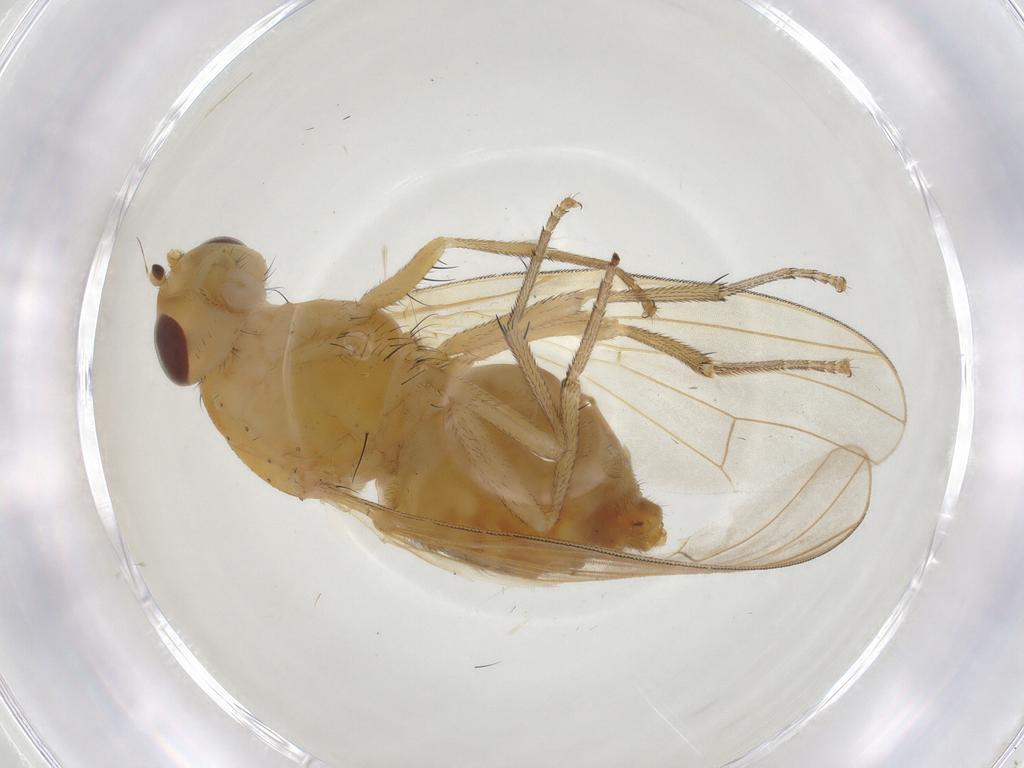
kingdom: Animalia
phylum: Arthropoda
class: Insecta
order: Diptera
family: Lauxaniidae
